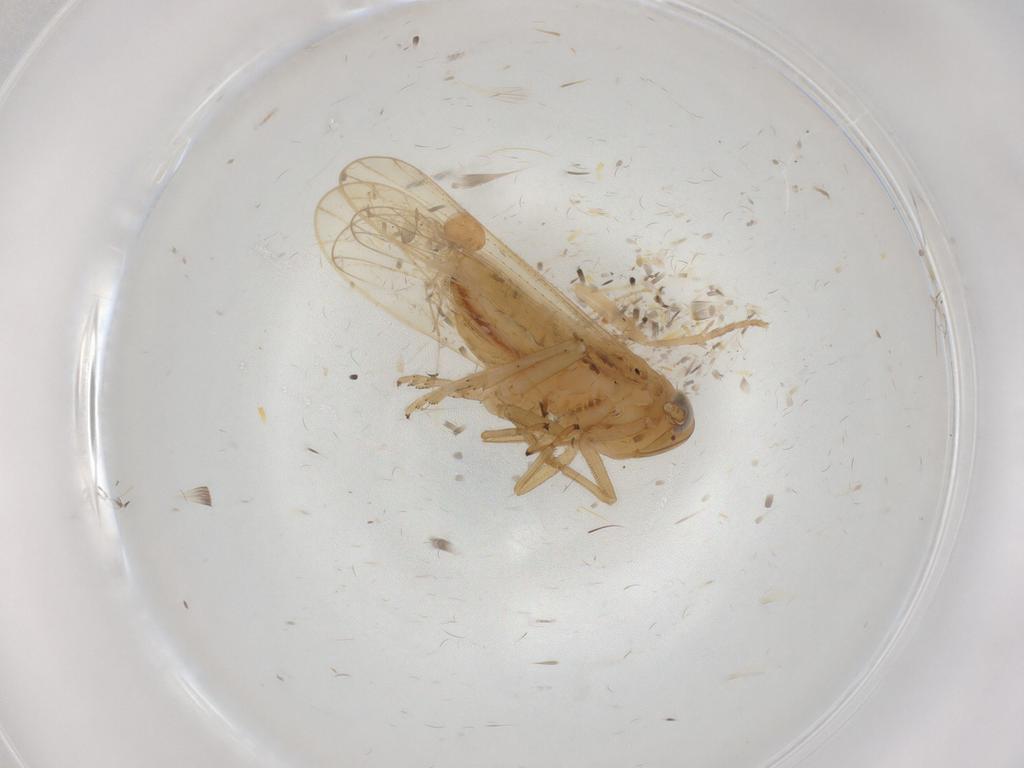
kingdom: Animalia
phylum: Arthropoda
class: Insecta
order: Hemiptera
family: Delphacidae
